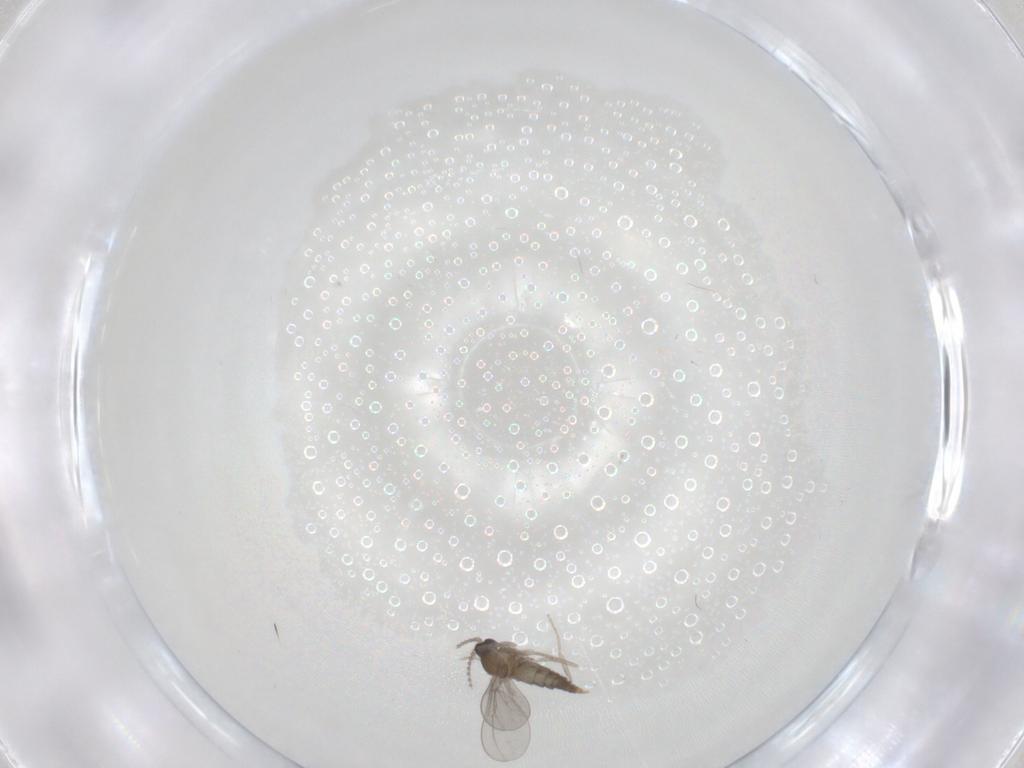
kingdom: Animalia
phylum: Arthropoda
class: Insecta
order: Diptera
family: Cecidomyiidae
